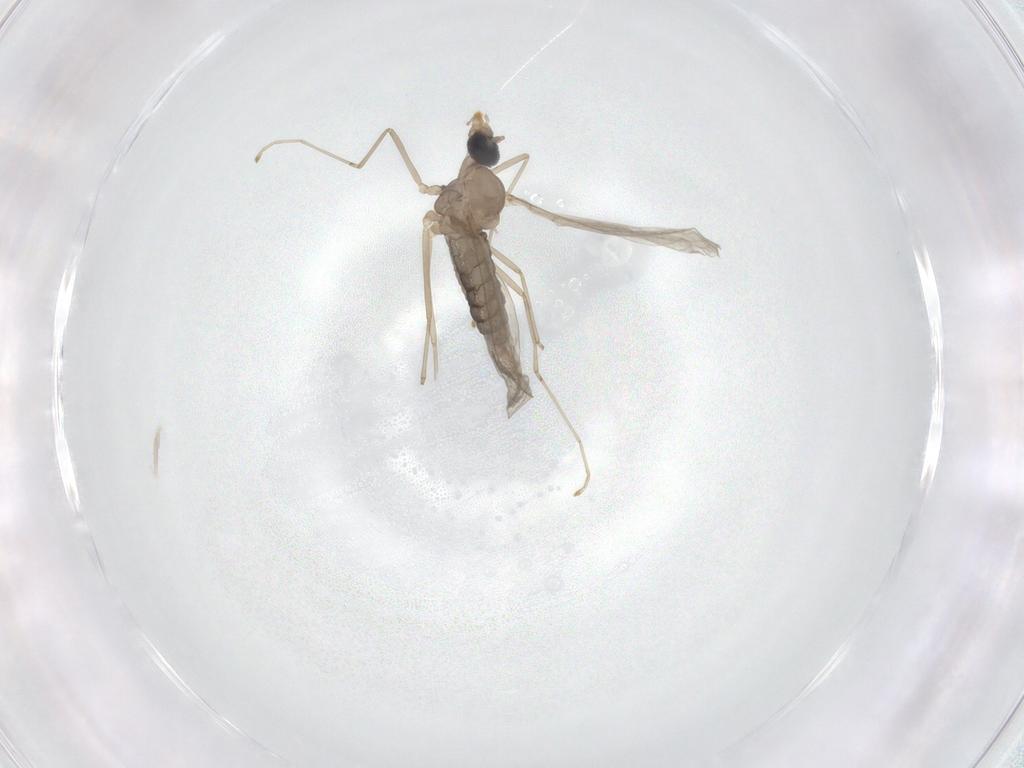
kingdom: Animalia
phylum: Arthropoda
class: Insecta
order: Diptera
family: Cecidomyiidae
